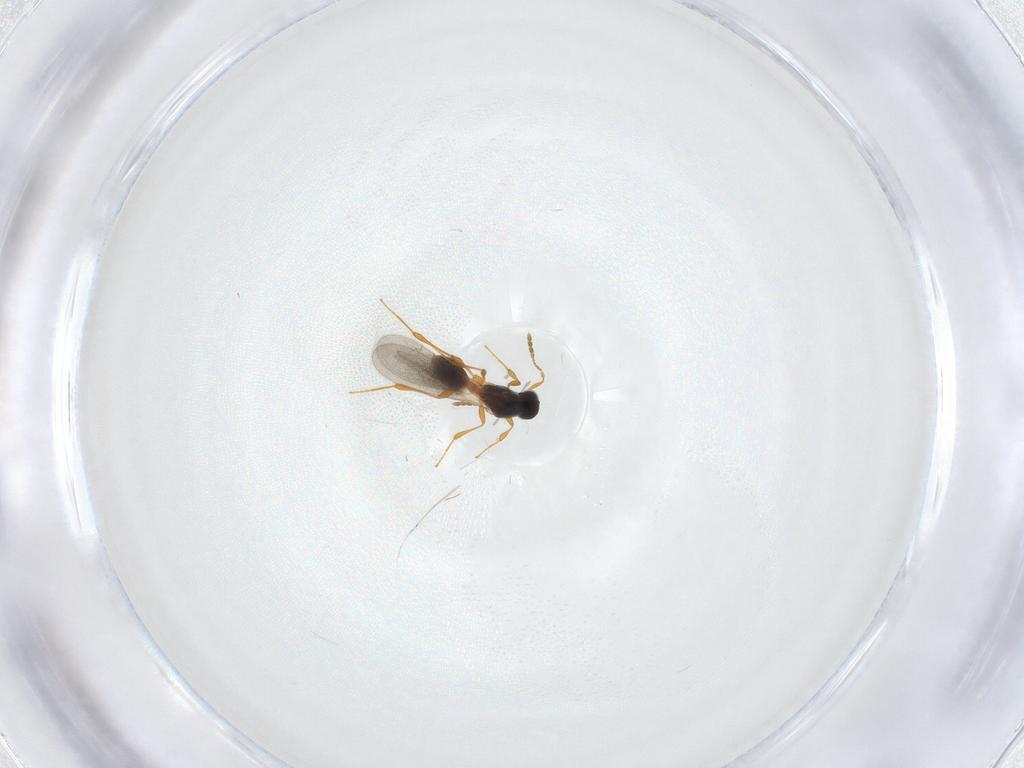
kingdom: Animalia
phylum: Arthropoda
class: Insecta
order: Hymenoptera
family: Platygastridae
